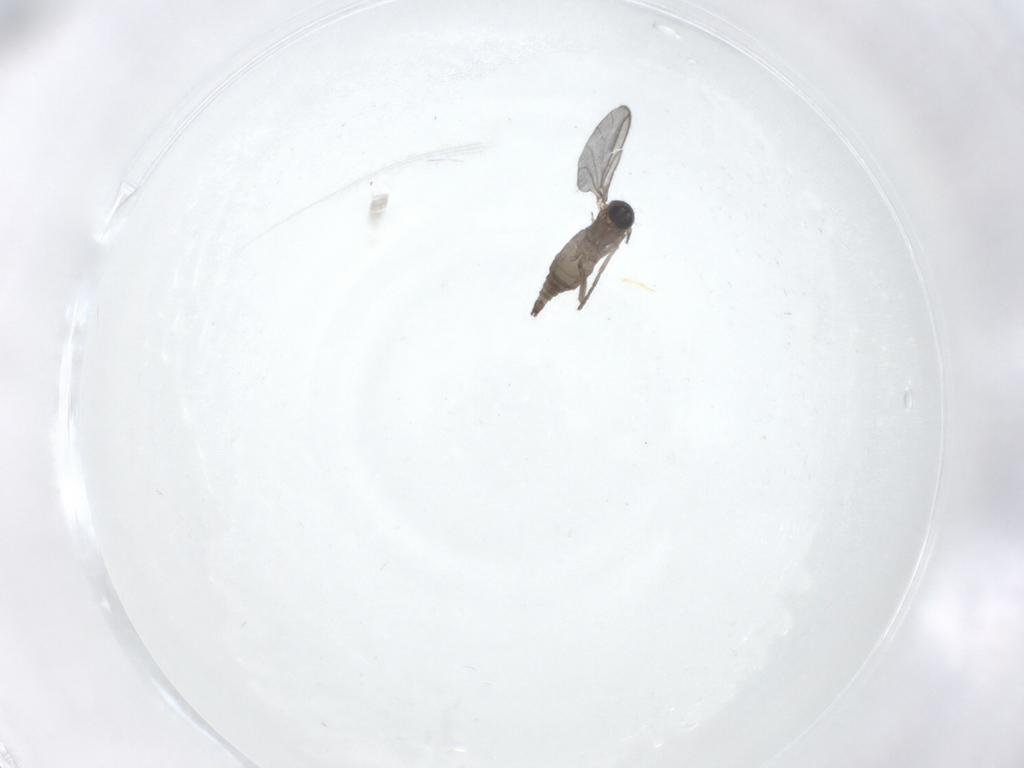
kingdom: Animalia
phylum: Arthropoda
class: Insecta
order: Diptera
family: Sciaridae
